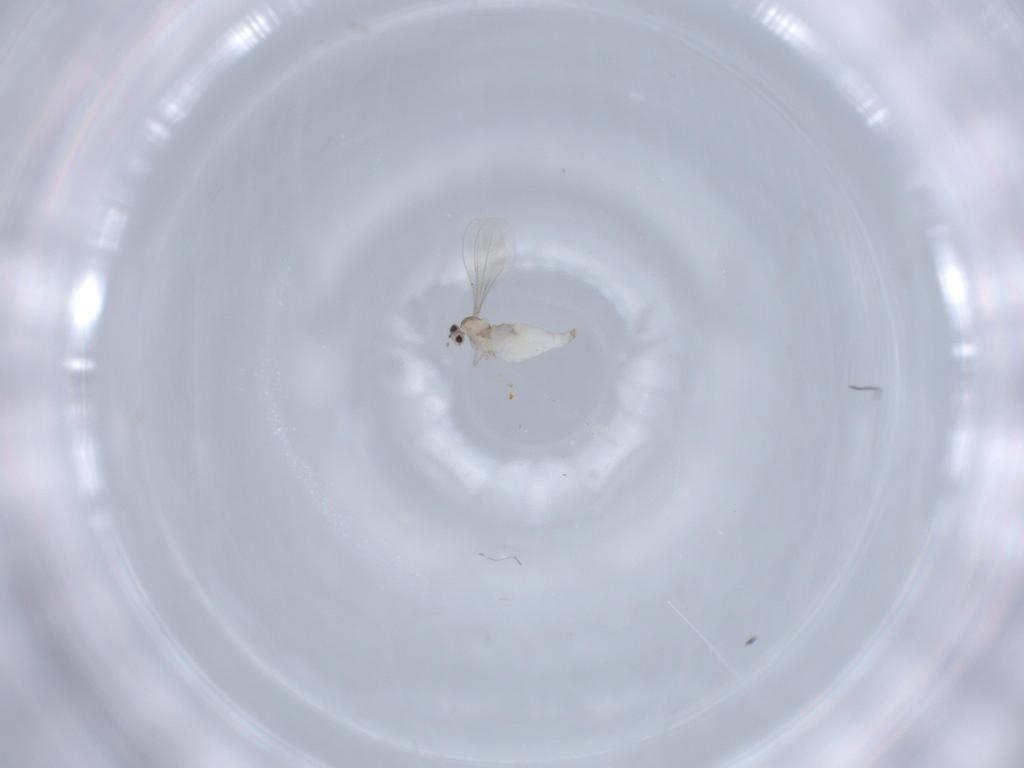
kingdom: Animalia
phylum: Arthropoda
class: Insecta
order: Diptera
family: Cecidomyiidae
